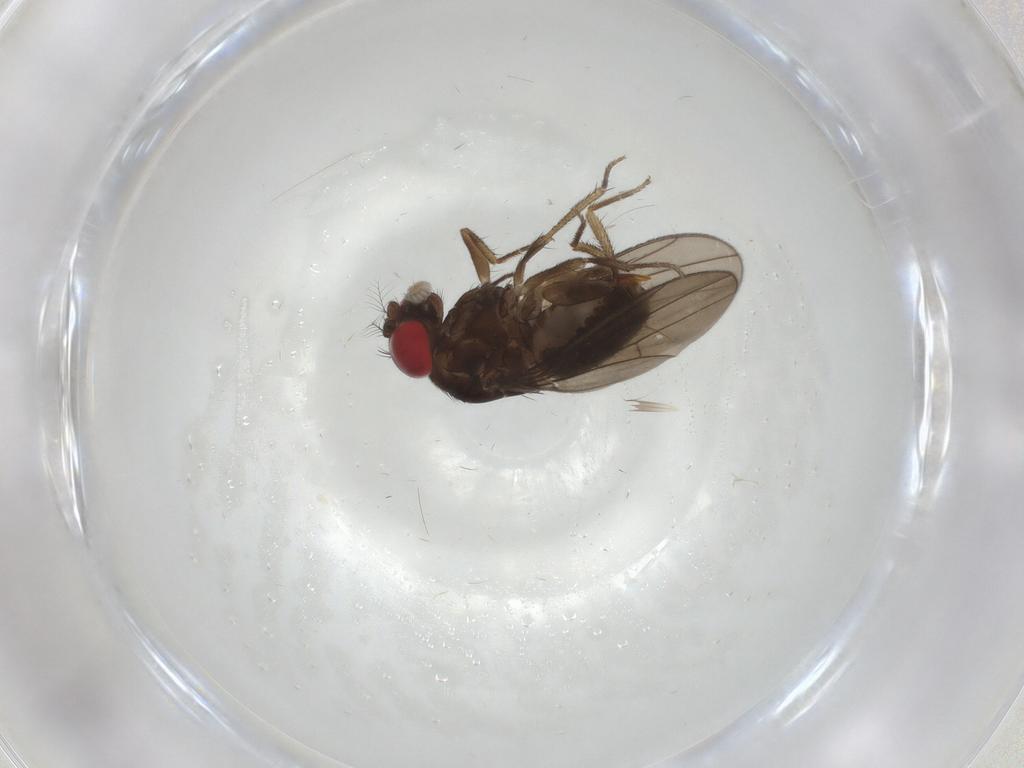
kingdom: Animalia
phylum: Arthropoda
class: Insecta
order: Diptera
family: Drosophilidae
